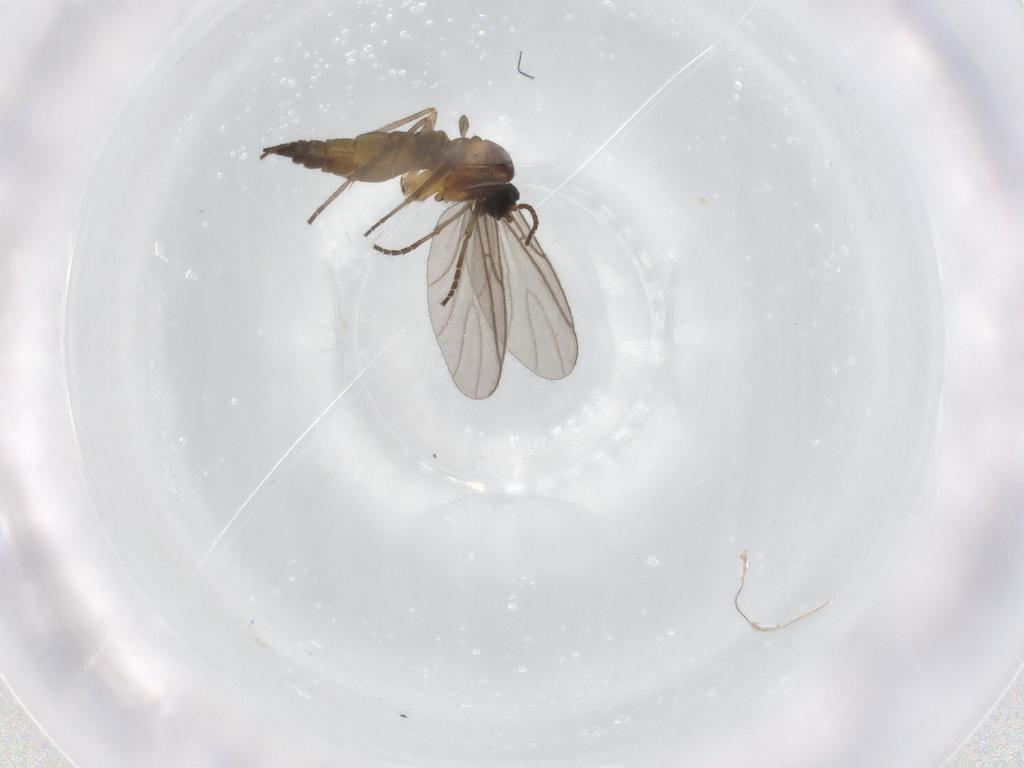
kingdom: Animalia
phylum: Arthropoda
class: Insecta
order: Diptera
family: Sciaridae
